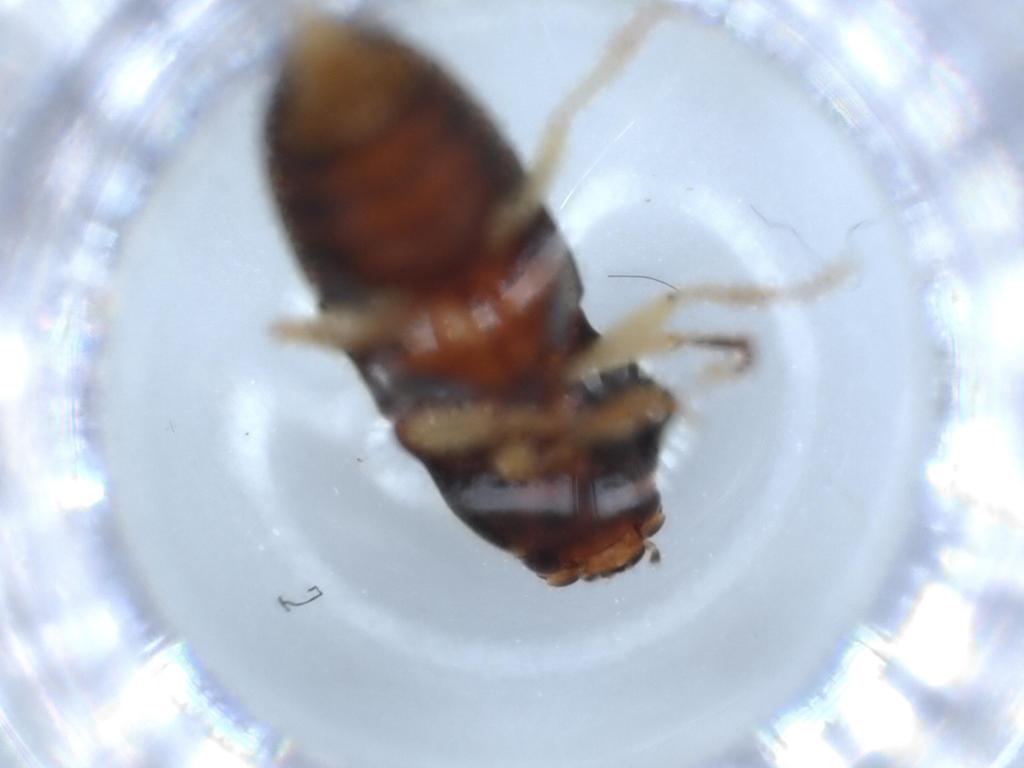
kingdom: Animalia
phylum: Arthropoda
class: Insecta
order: Coleoptera
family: Elateridae
